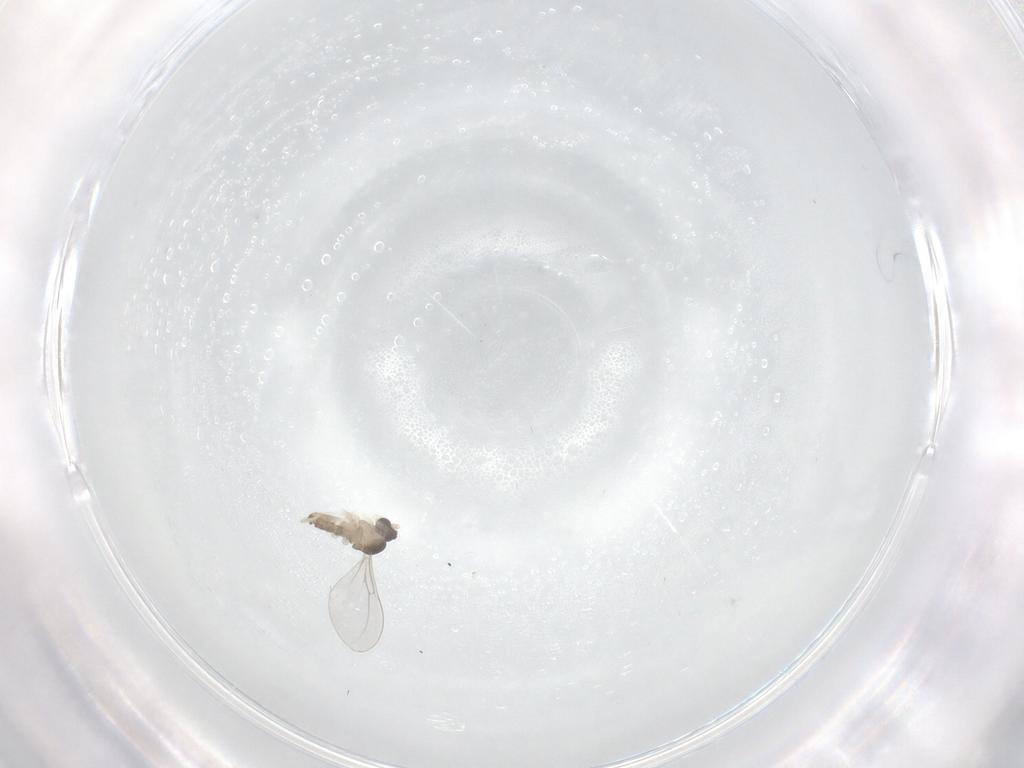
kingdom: Animalia
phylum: Arthropoda
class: Insecta
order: Diptera
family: Cecidomyiidae
